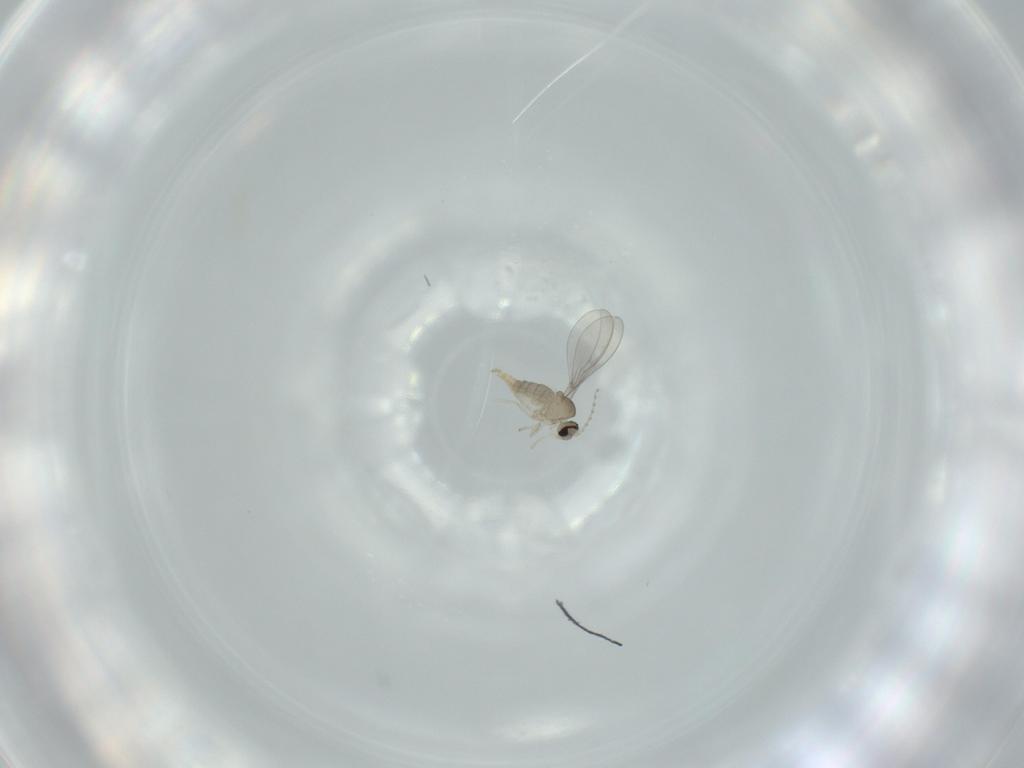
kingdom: Animalia
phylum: Arthropoda
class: Insecta
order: Diptera
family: Cecidomyiidae
